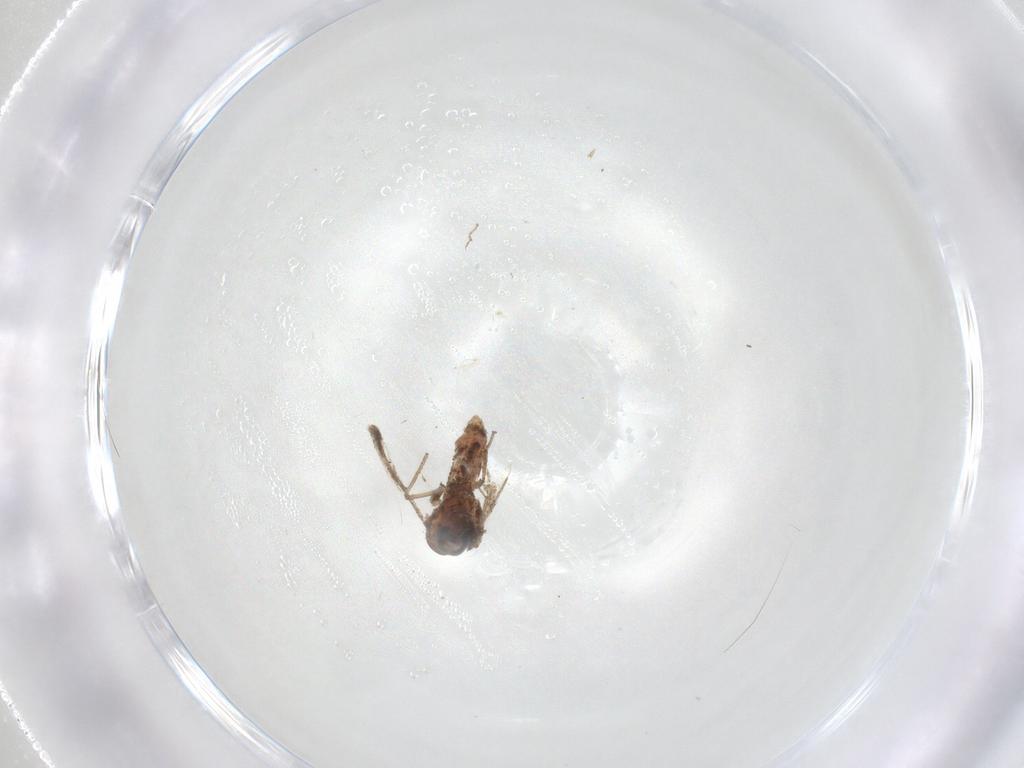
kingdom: Animalia
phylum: Arthropoda
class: Insecta
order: Diptera
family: Chironomidae
